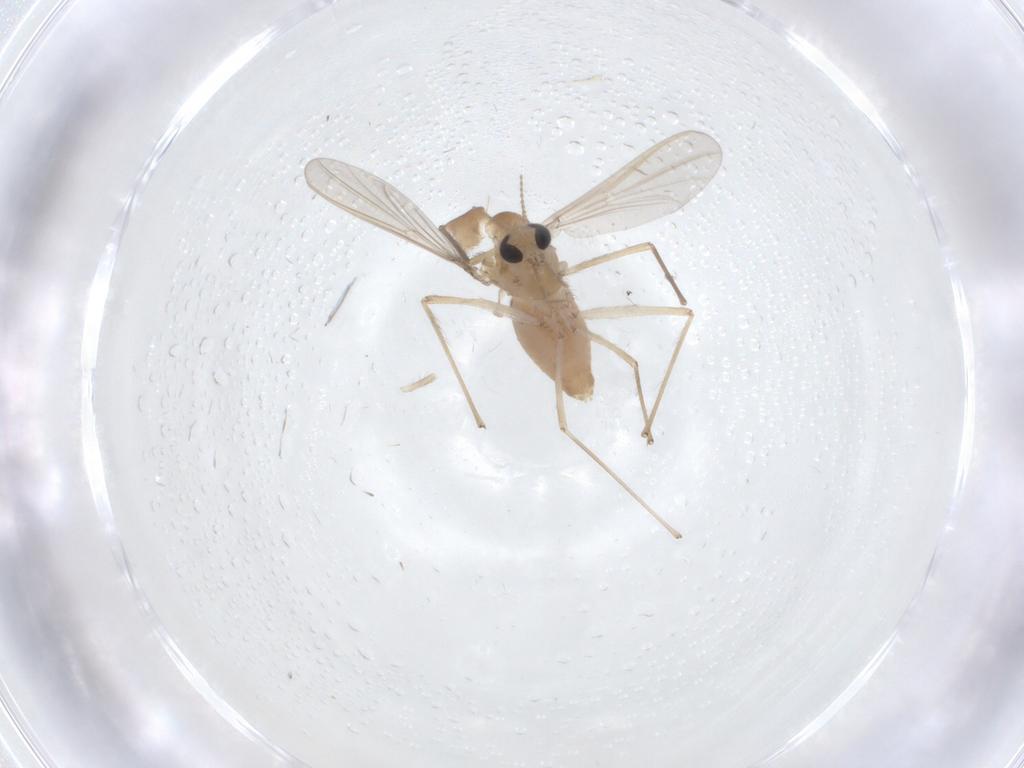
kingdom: Animalia
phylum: Arthropoda
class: Insecta
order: Diptera
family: Chironomidae
